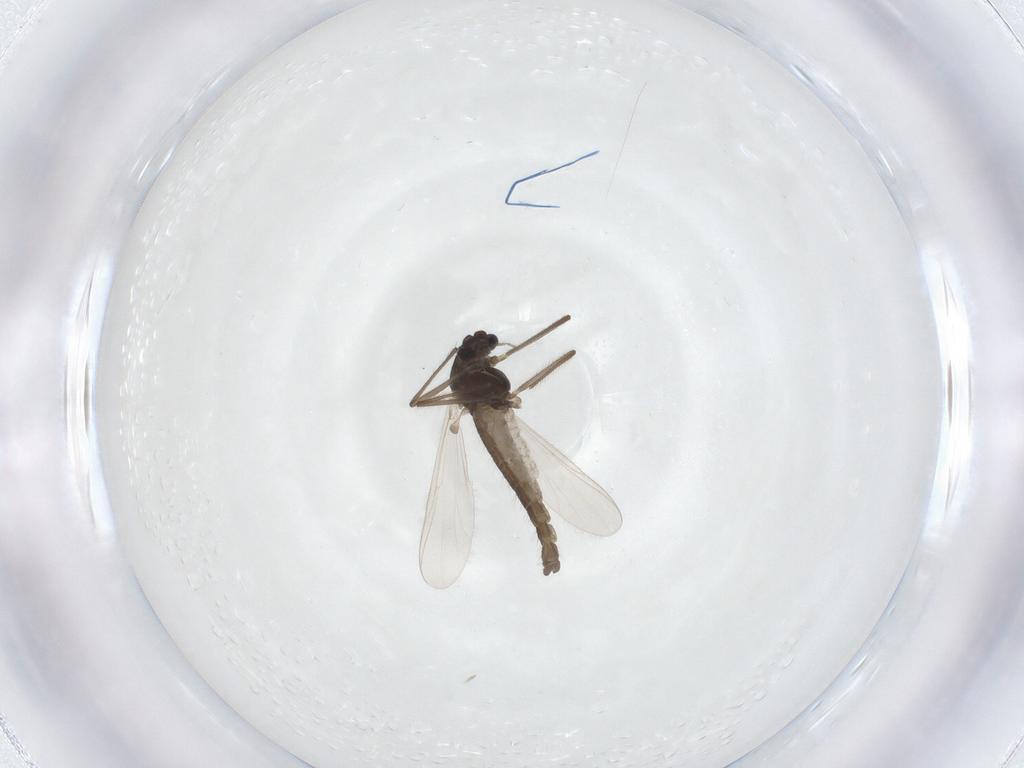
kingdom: Animalia
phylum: Arthropoda
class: Insecta
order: Diptera
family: Chironomidae
